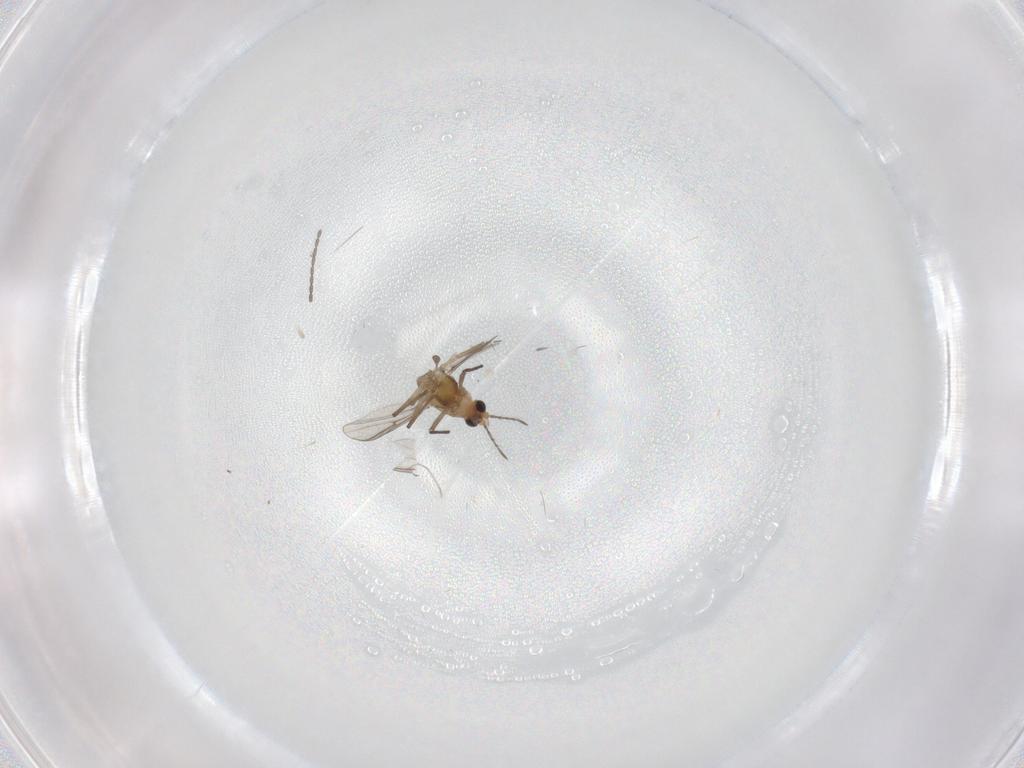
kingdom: Animalia
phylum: Arthropoda
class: Insecta
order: Diptera
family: Chironomidae
